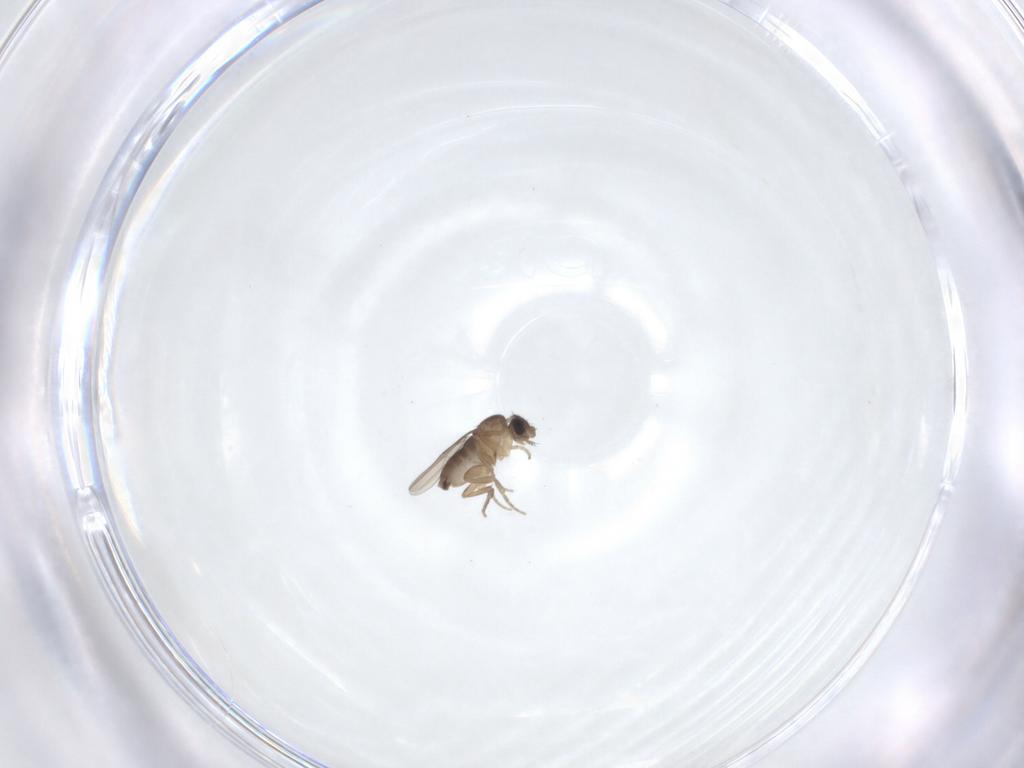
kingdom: Animalia
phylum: Arthropoda
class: Insecta
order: Diptera
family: Phoridae
